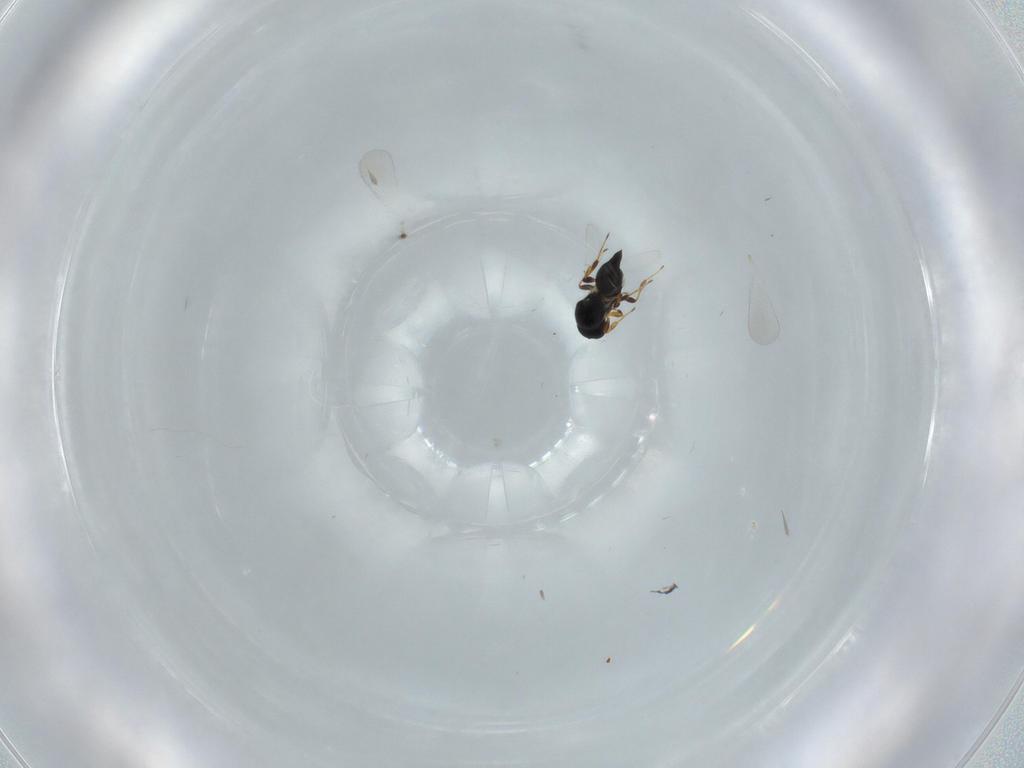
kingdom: Animalia
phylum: Arthropoda
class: Insecta
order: Hymenoptera
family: Platygastridae
